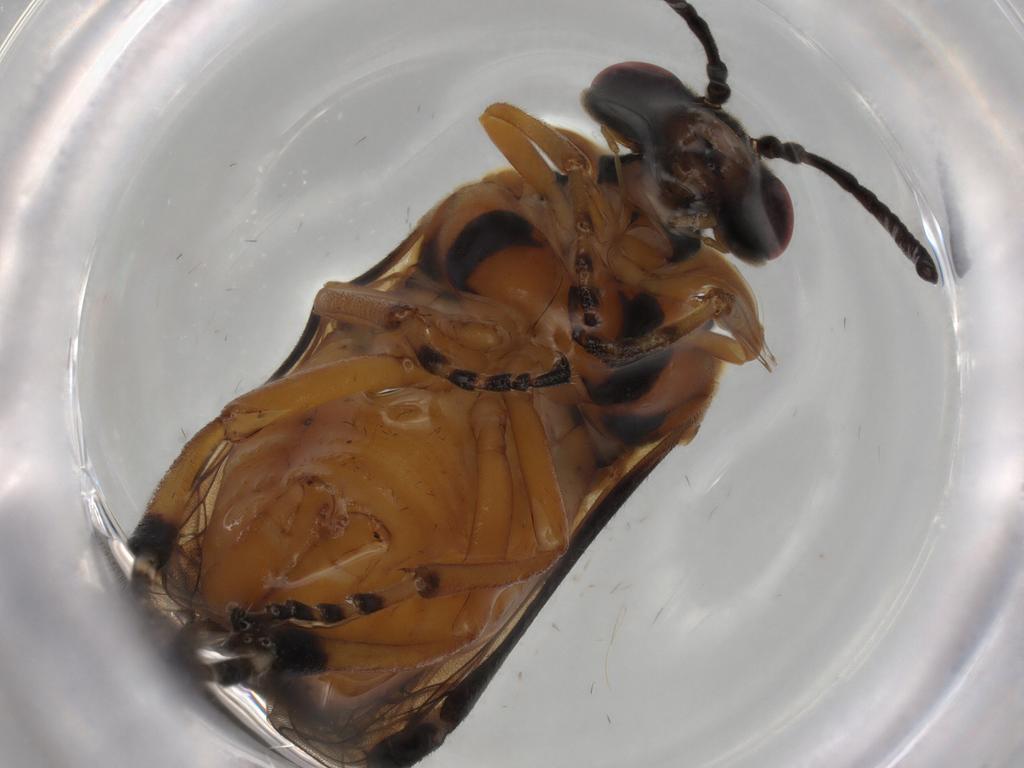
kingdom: Animalia
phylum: Arthropoda
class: Insecta
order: Hymenoptera
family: Tenthredinidae
